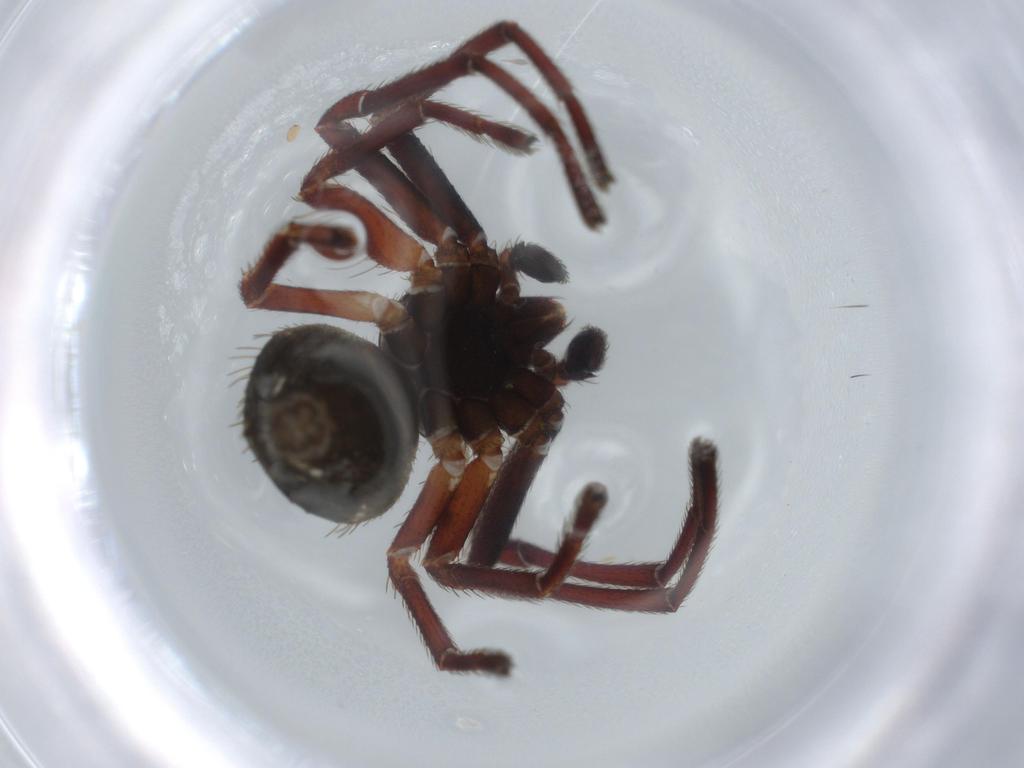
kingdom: Animalia
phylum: Arthropoda
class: Arachnida
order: Araneae
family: Thomisidae
